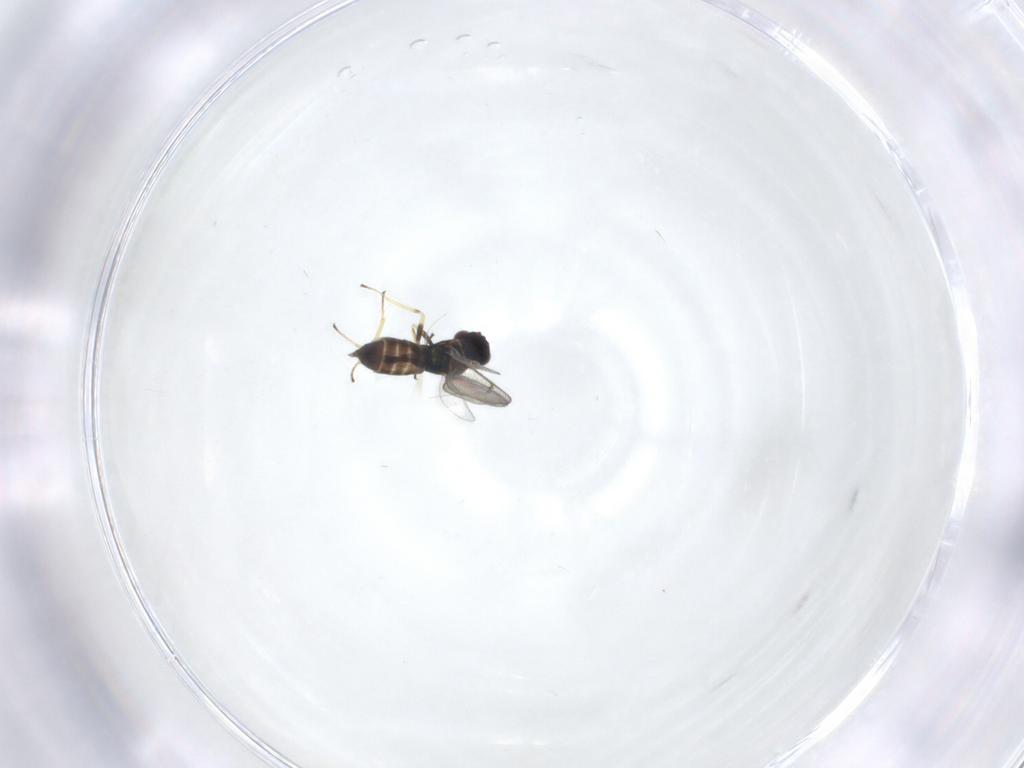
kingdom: Animalia
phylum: Arthropoda
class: Insecta
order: Hymenoptera
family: Eulophidae
